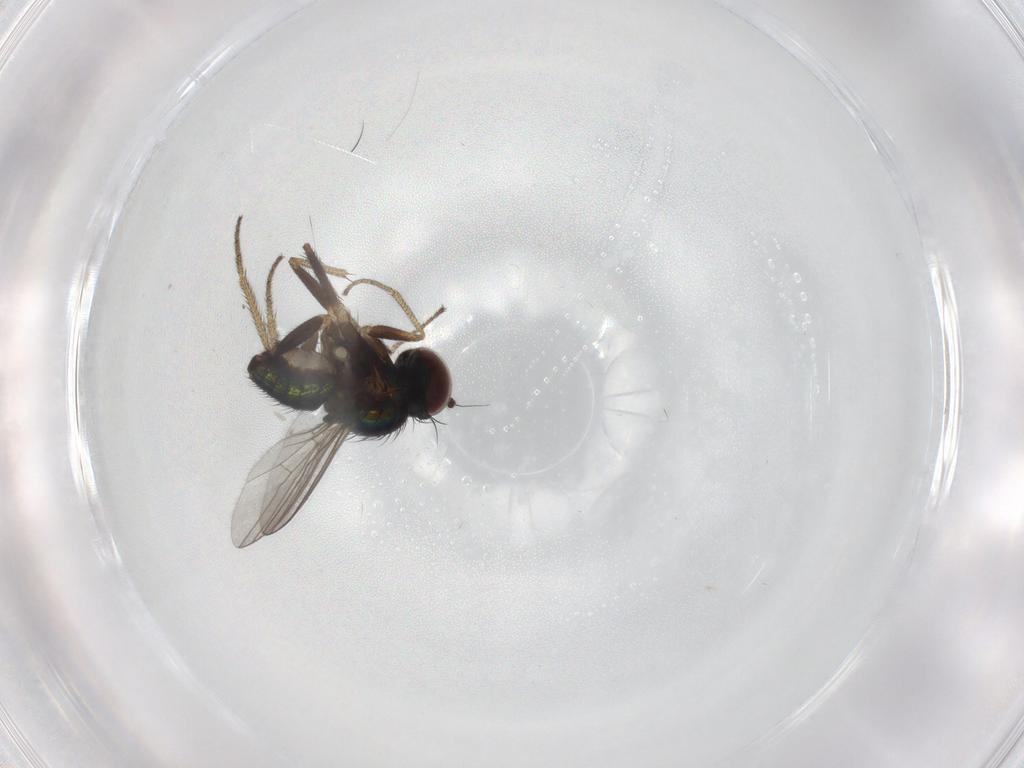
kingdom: Animalia
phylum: Arthropoda
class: Insecta
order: Diptera
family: Dolichopodidae
